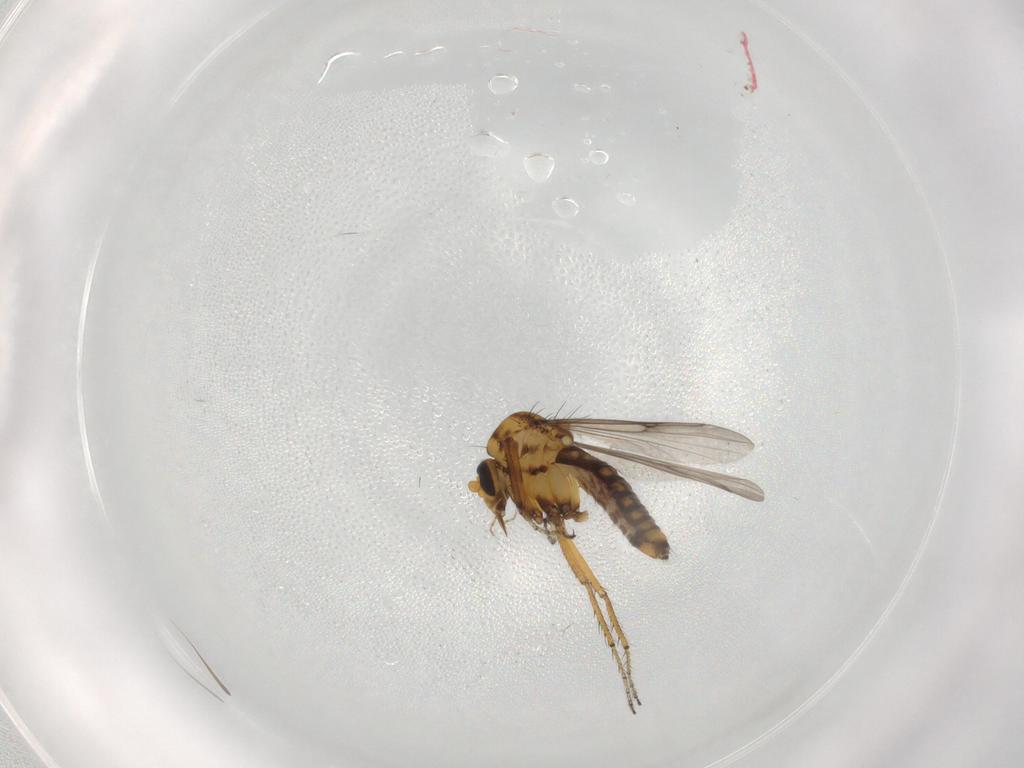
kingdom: Animalia
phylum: Arthropoda
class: Insecta
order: Diptera
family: Ceratopogonidae
